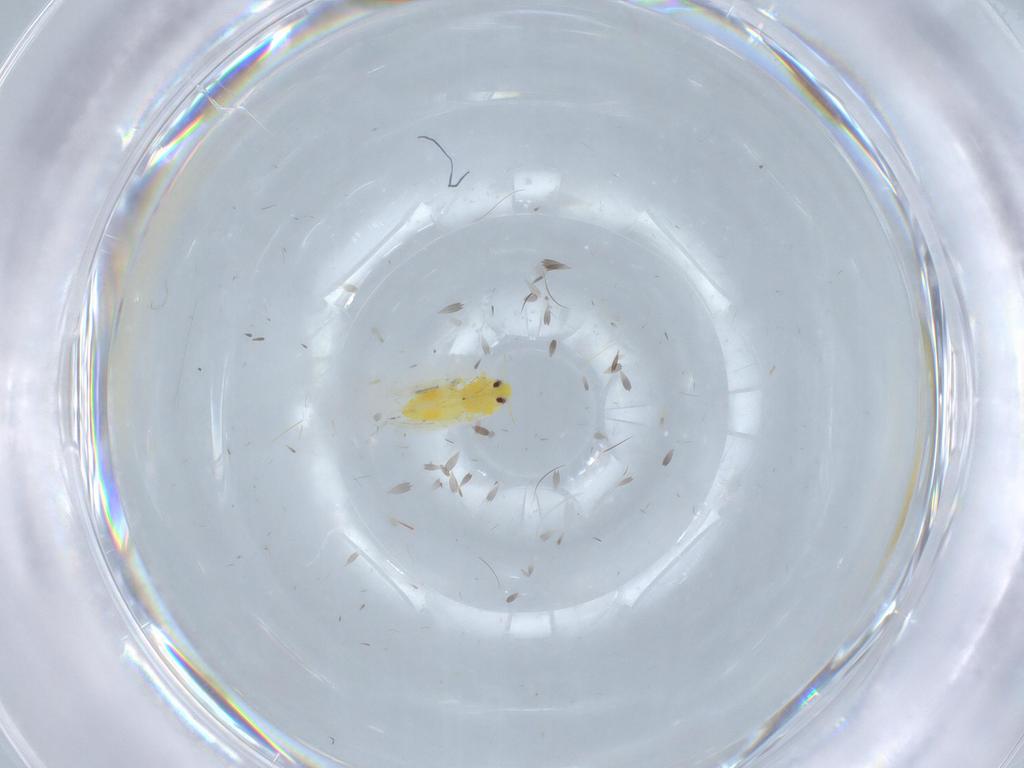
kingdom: Animalia
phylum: Arthropoda
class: Insecta
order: Hemiptera
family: Aleyrodidae
